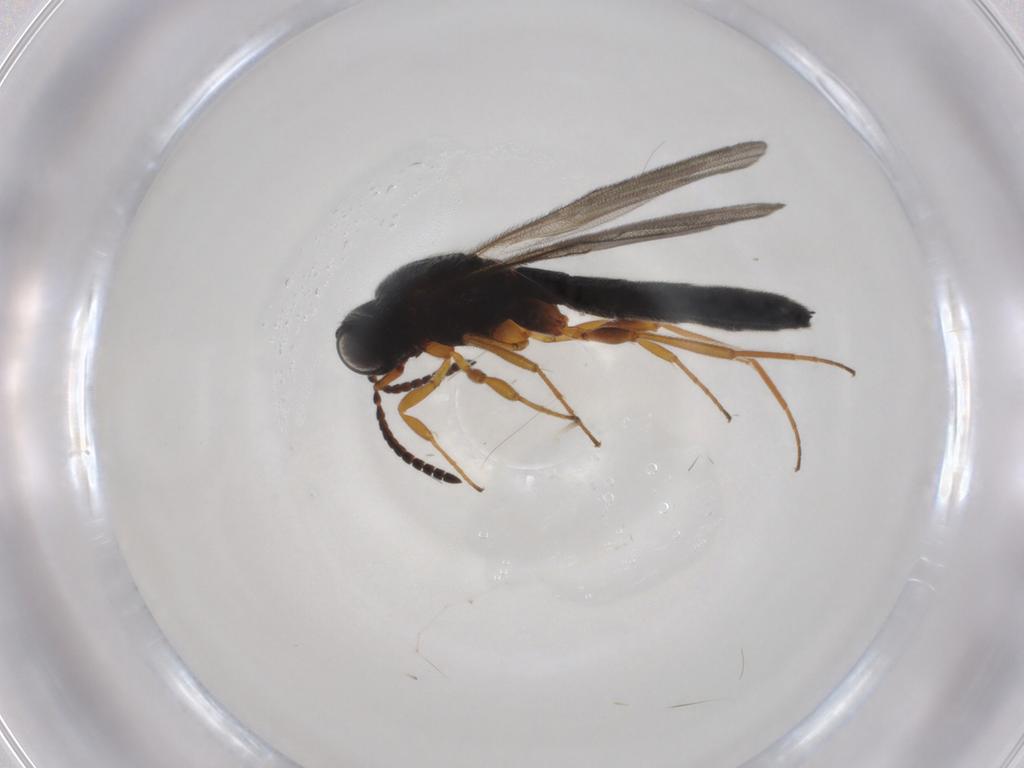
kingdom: Animalia
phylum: Arthropoda
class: Insecta
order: Hymenoptera
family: Scelionidae
